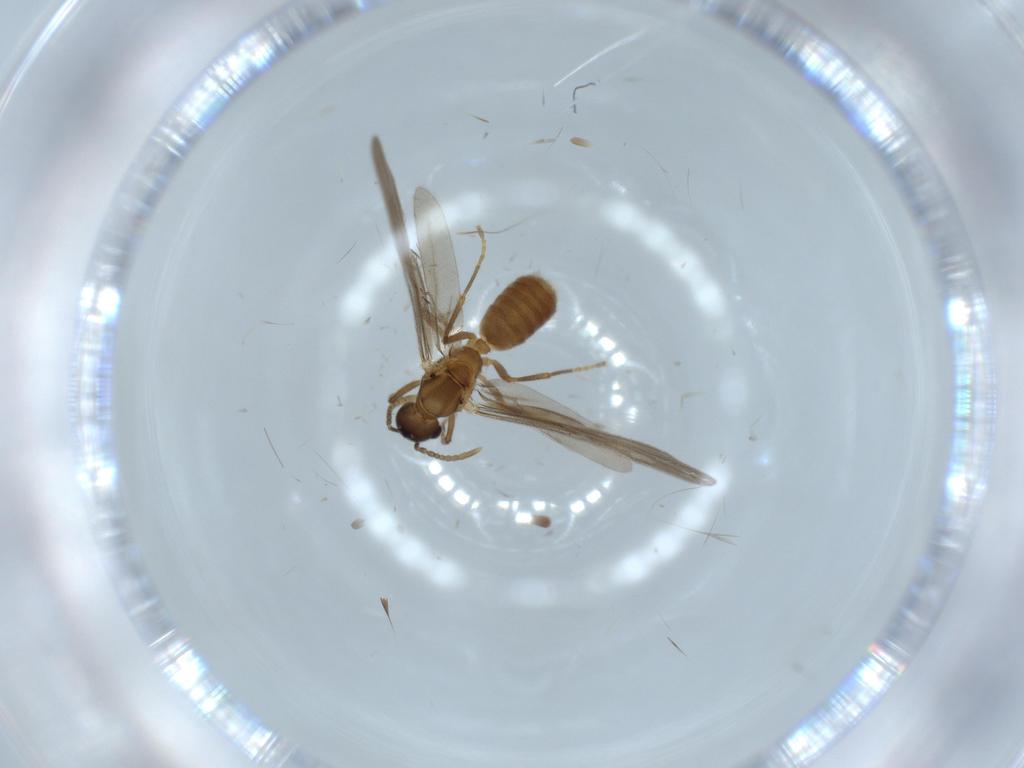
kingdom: Animalia
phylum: Arthropoda
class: Insecta
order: Hymenoptera
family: Formicidae
